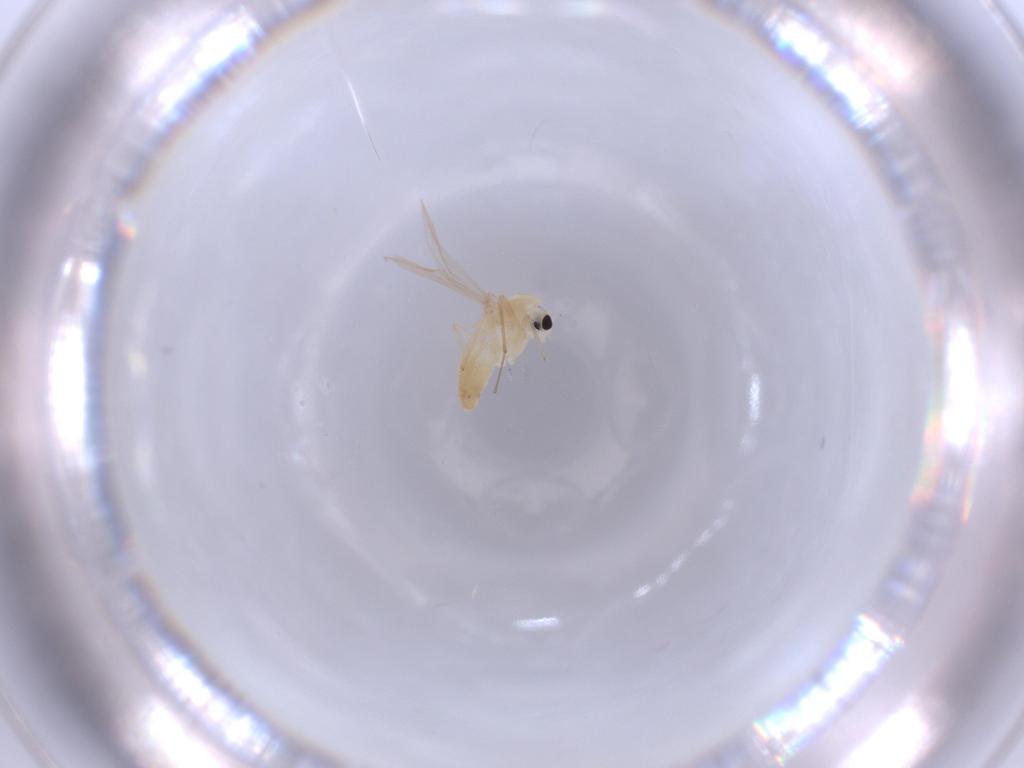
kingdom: Animalia
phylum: Arthropoda
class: Insecta
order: Diptera
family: Chironomidae
